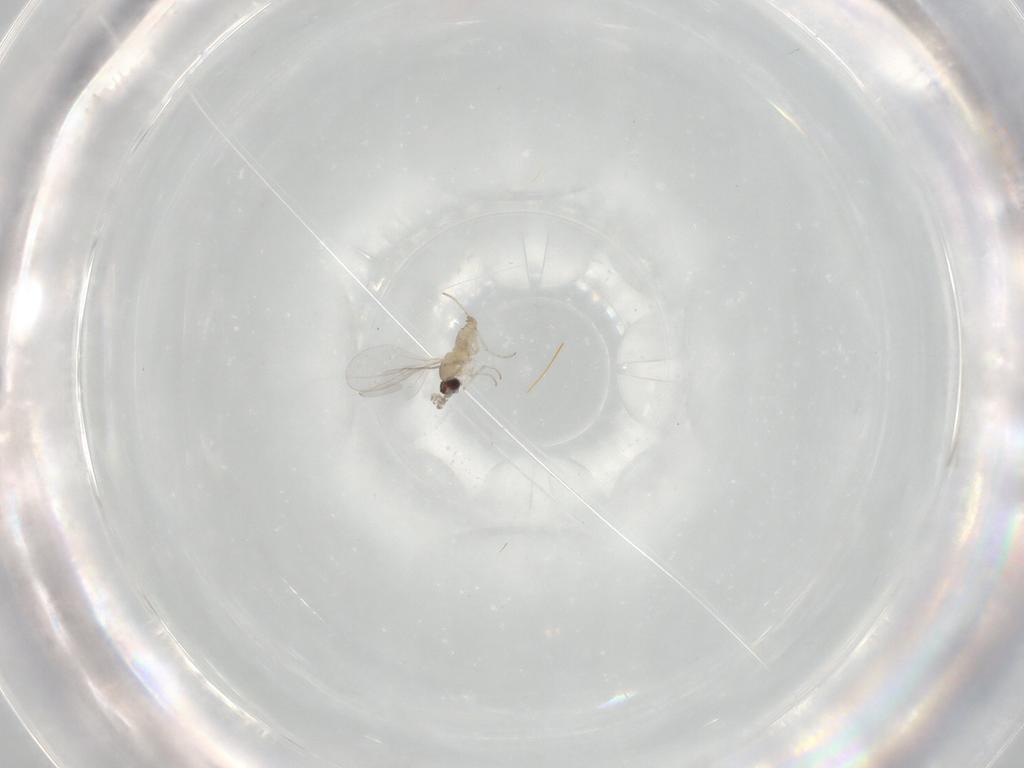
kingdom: Animalia
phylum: Arthropoda
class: Insecta
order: Diptera
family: Cecidomyiidae
